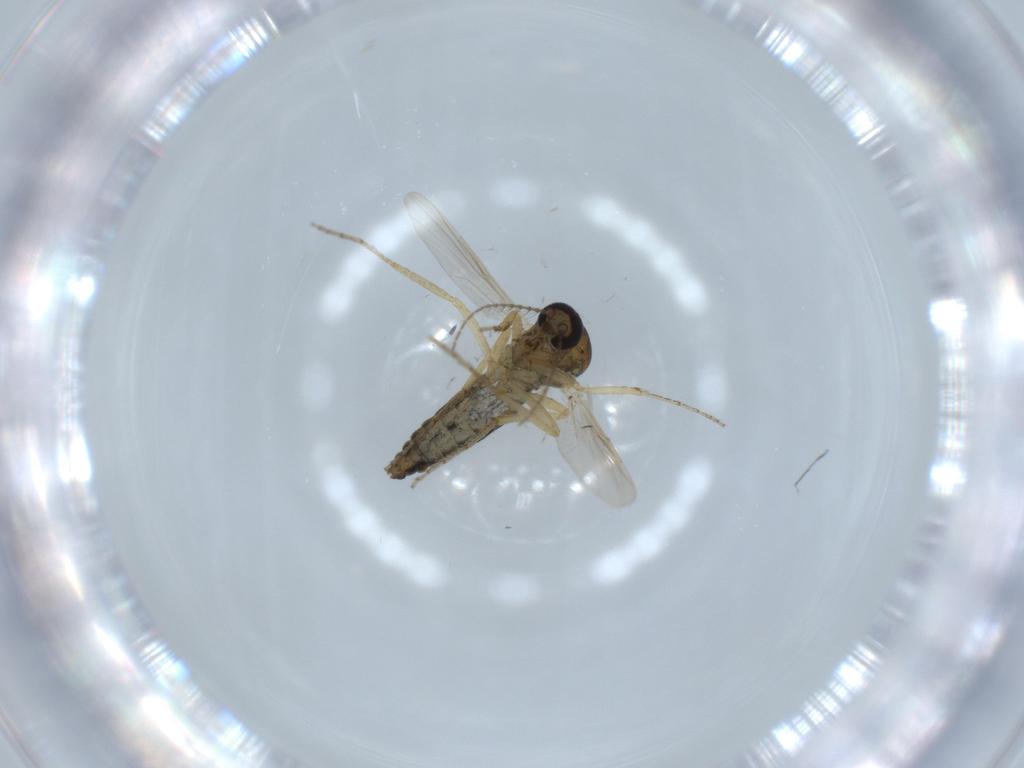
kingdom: Animalia
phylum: Arthropoda
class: Insecta
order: Diptera
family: Ceratopogonidae
